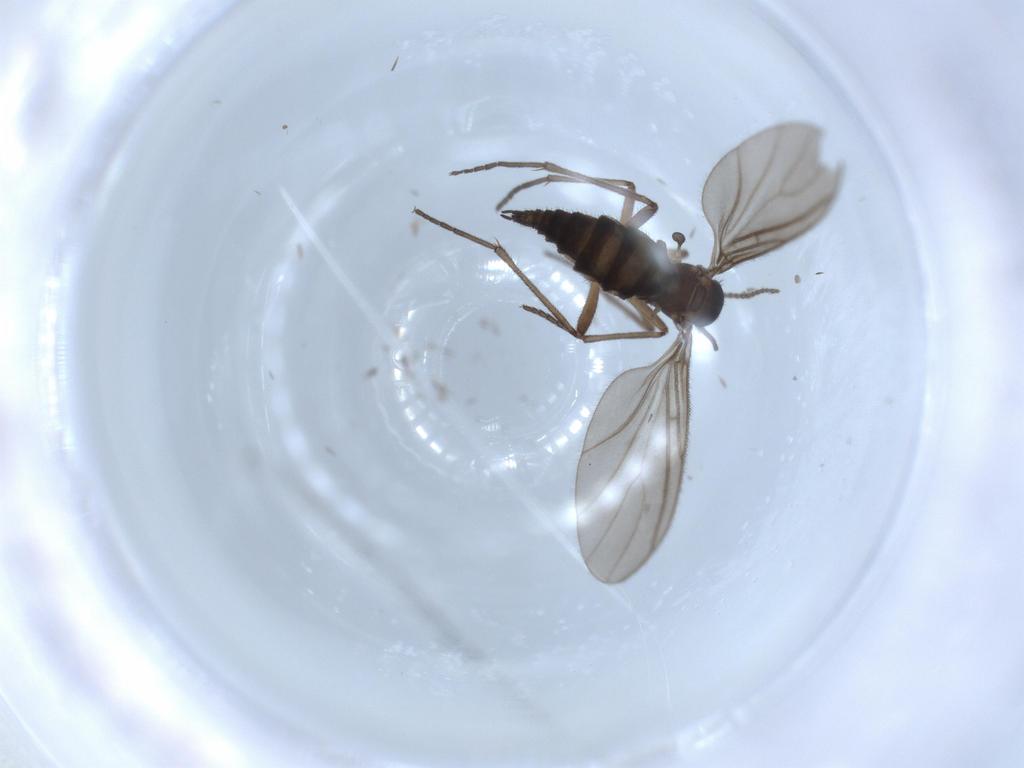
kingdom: Animalia
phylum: Arthropoda
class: Insecta
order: Diptera
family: Sciaridae
